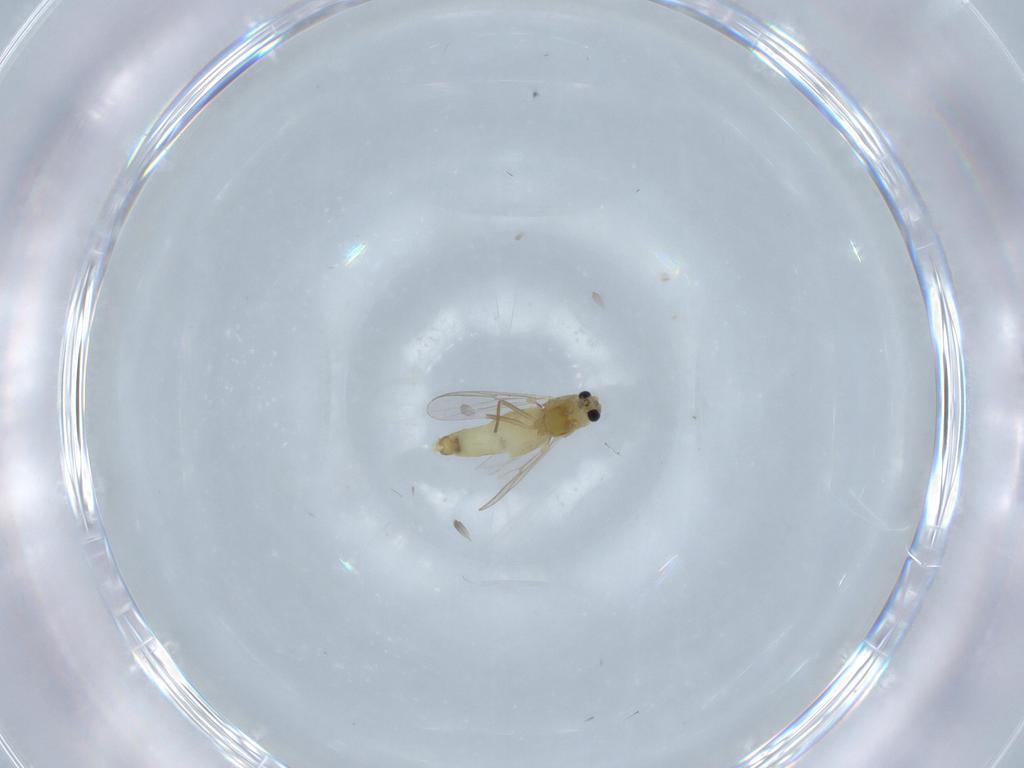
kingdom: Animalia
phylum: Arthropoda
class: Insecta
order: Diptera
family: Chironomidae
